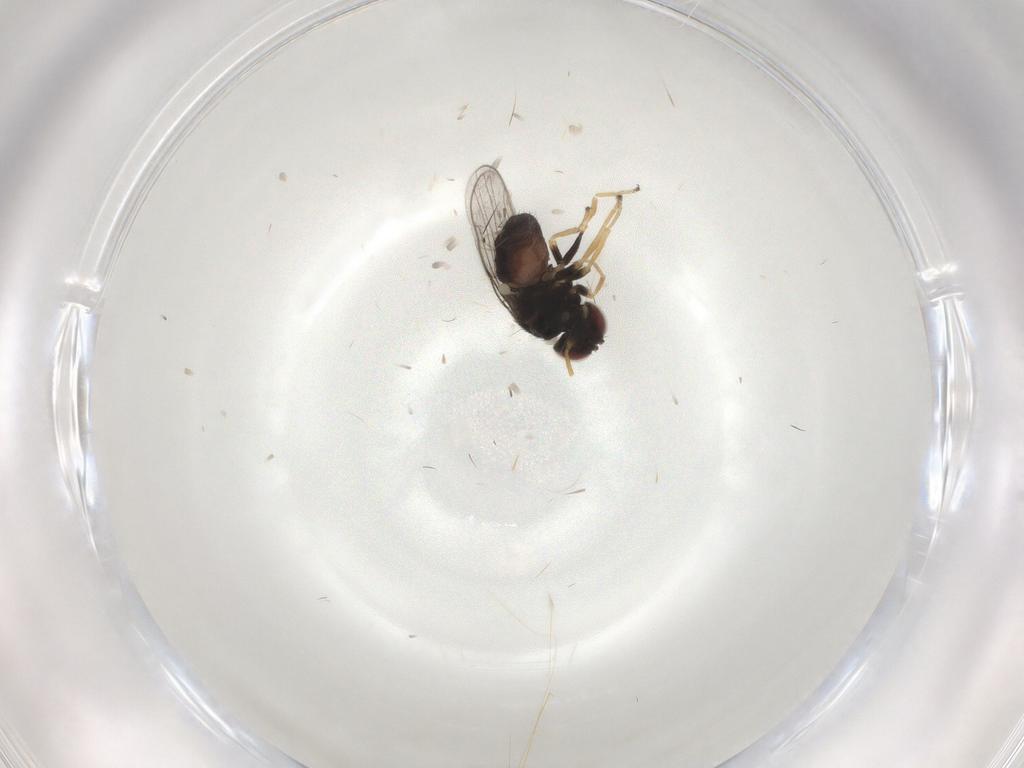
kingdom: Animalia
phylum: Arthropoda
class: Insecta
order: Diptera
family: Chloropidae
